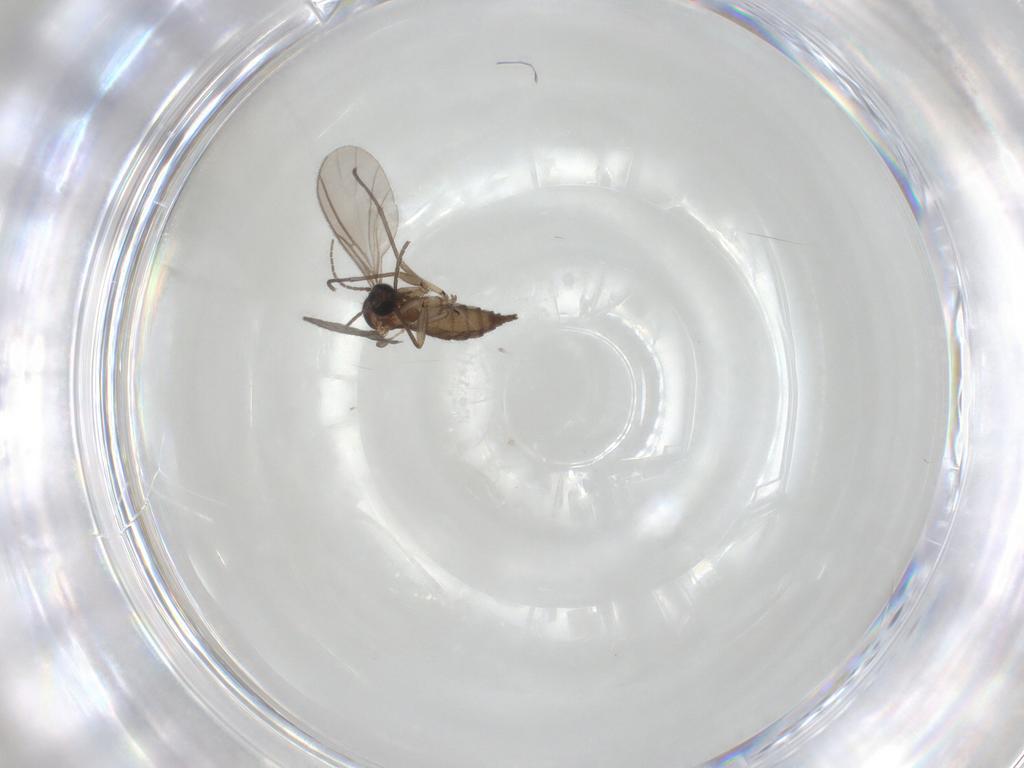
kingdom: Animalia
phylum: Arthropoda
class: Insecta
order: Diptera
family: Sciaridae
